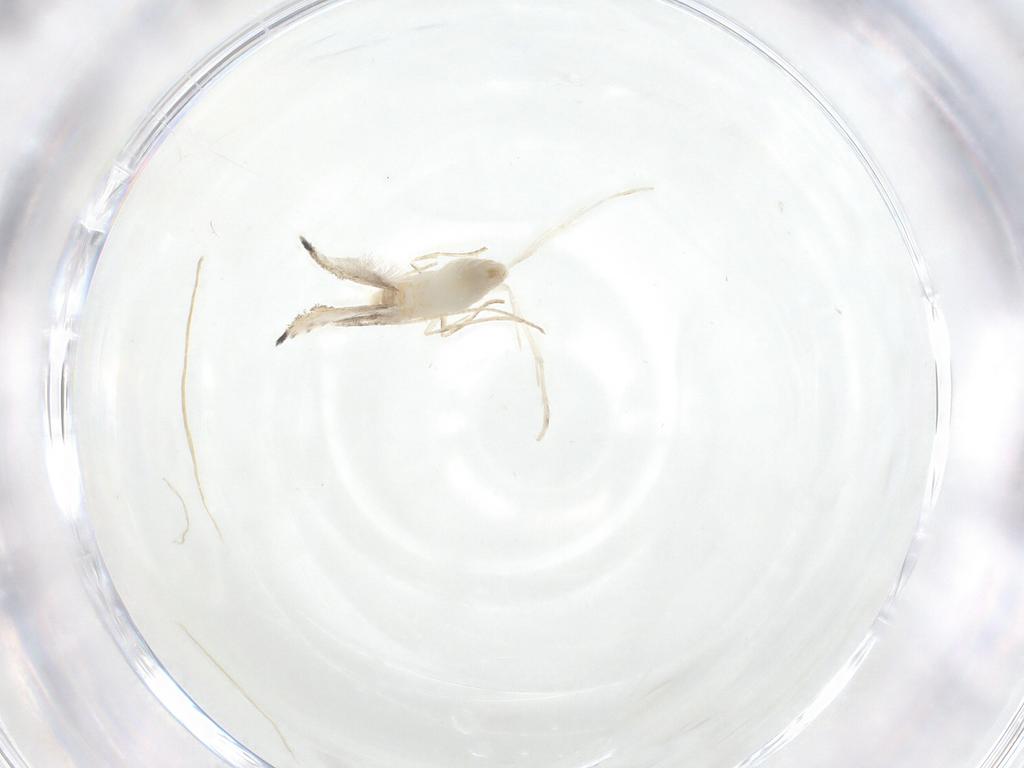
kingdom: Animalia
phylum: Arthropoda
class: Insecta
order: Lepidoptera
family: Gracillariidae
